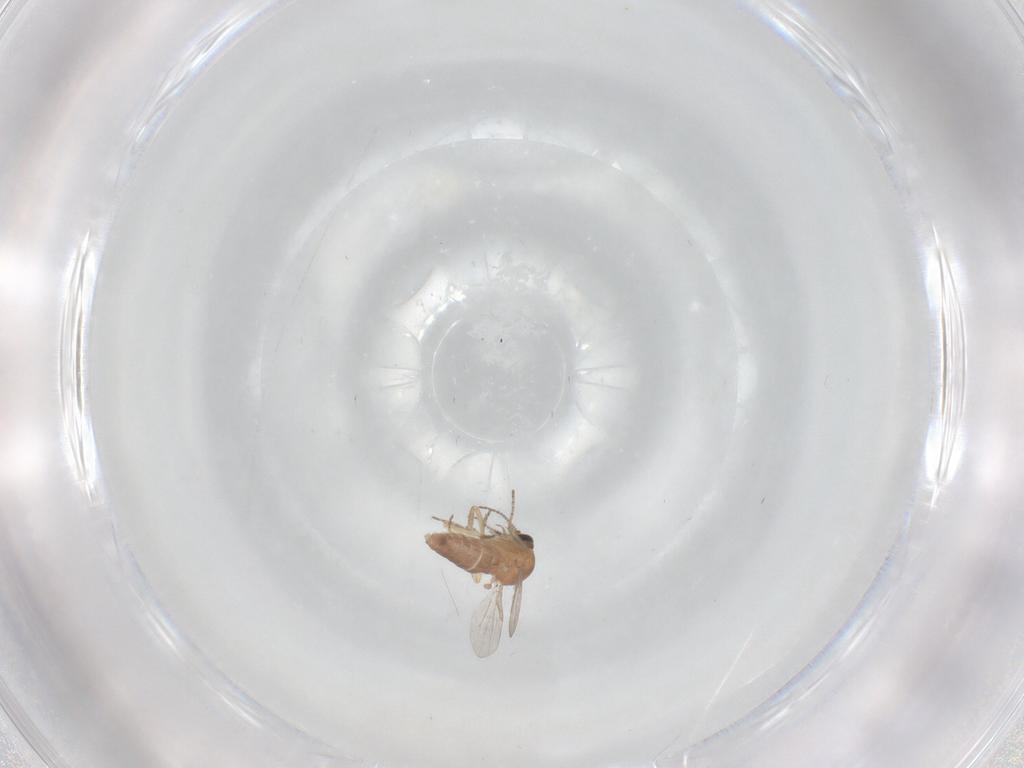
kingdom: Animalia
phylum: Arthropoda
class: Insecta
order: Diptera
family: Ceratopogonidae
